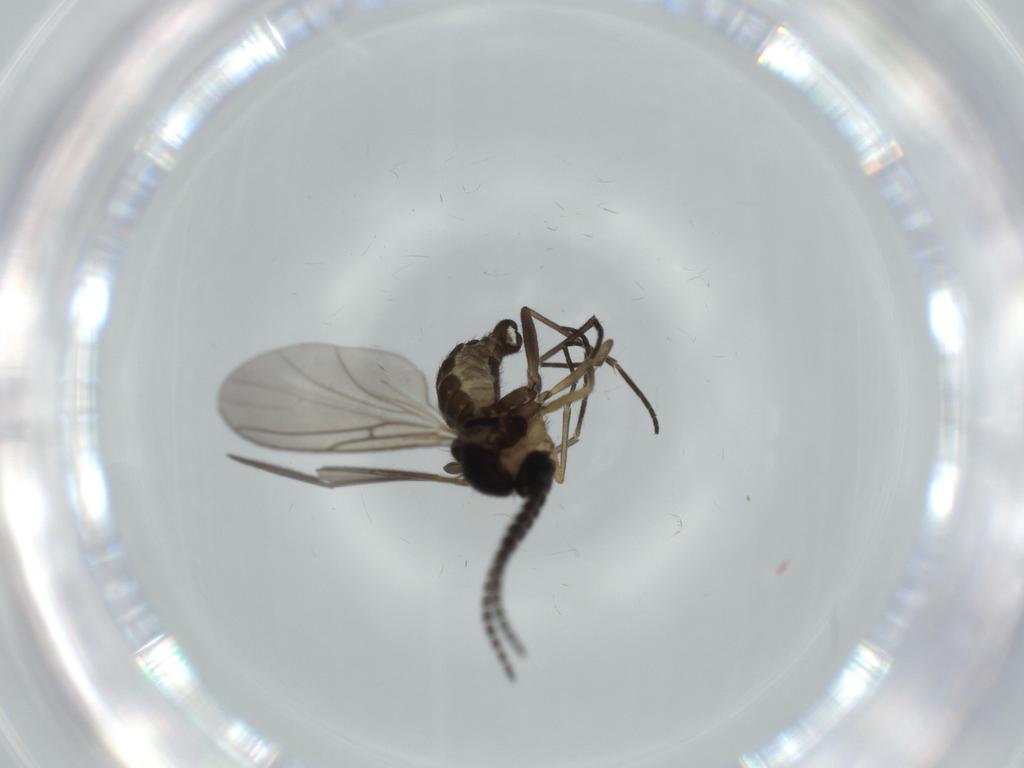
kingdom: Animalia
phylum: Arthropoda
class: Insecta
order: Diptera
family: Sciaridae
